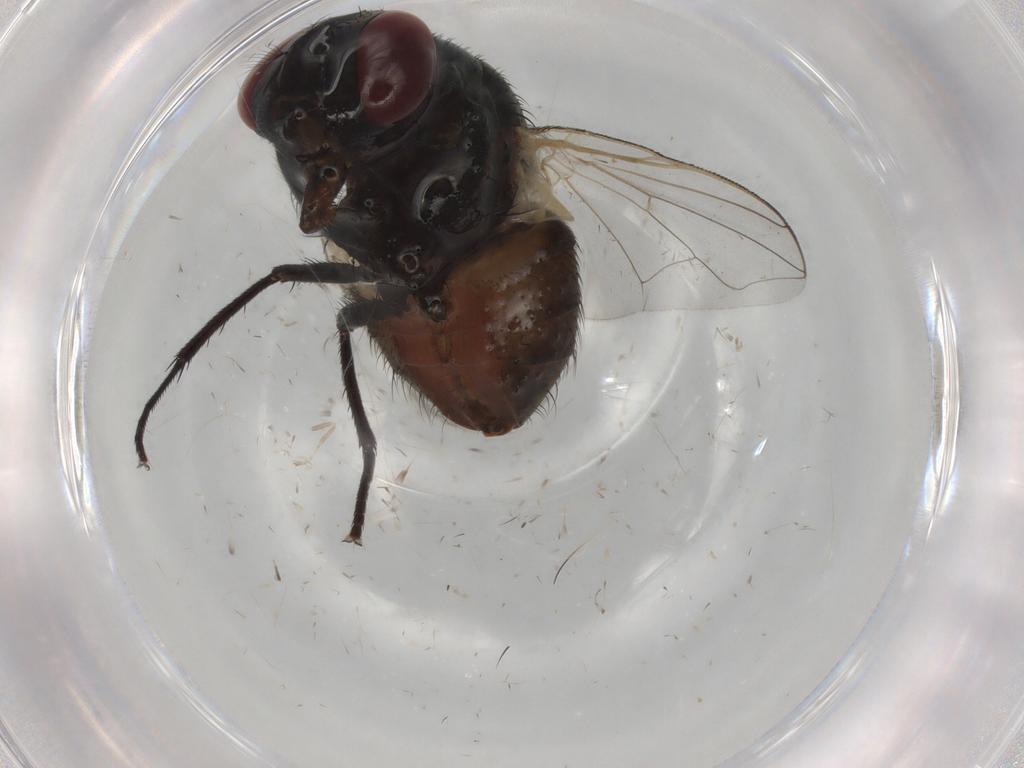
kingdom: Animalia
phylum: Arthropoda
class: Insecta
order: Diptera
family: Muscidae
